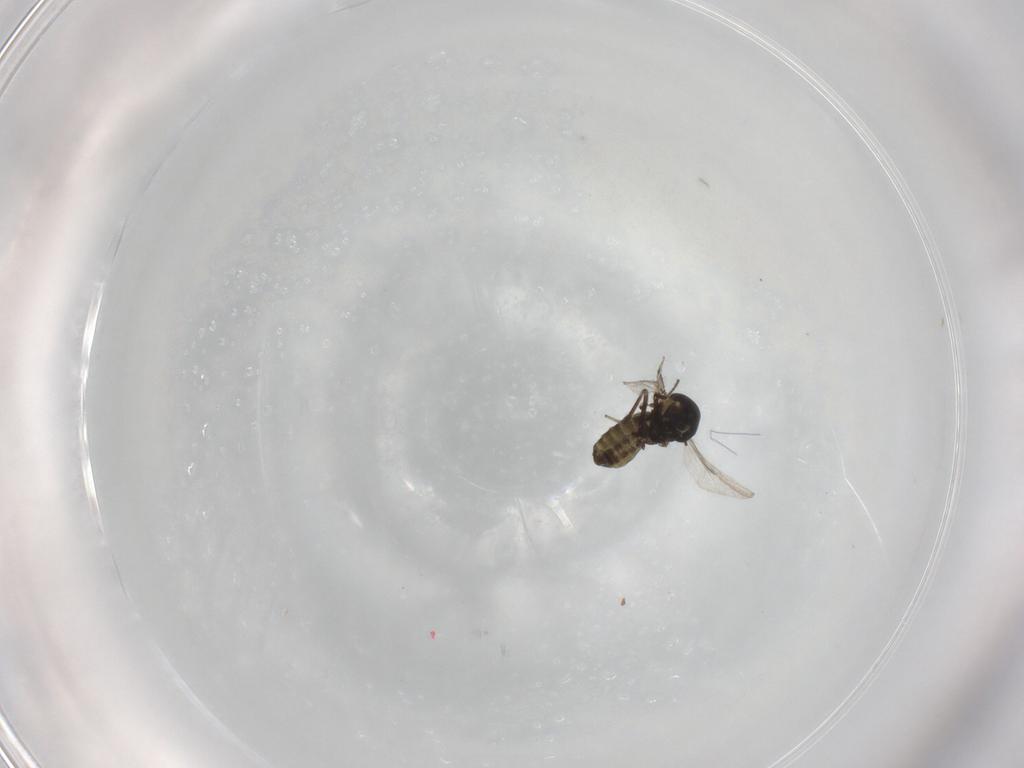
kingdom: Animalia
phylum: Arthropoda
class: Insecta
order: Diptera
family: Ceratopogonidae
